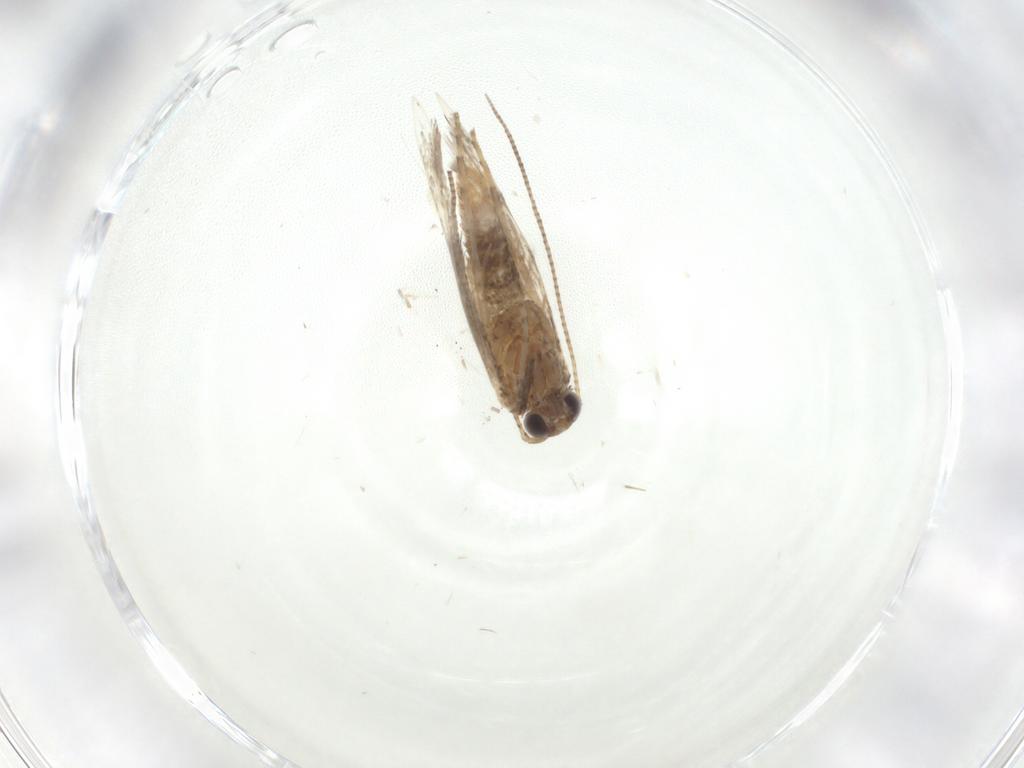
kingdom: Animalia
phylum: Arthropoda
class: Insecta
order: Lepidoptera
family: Gracillariidae
